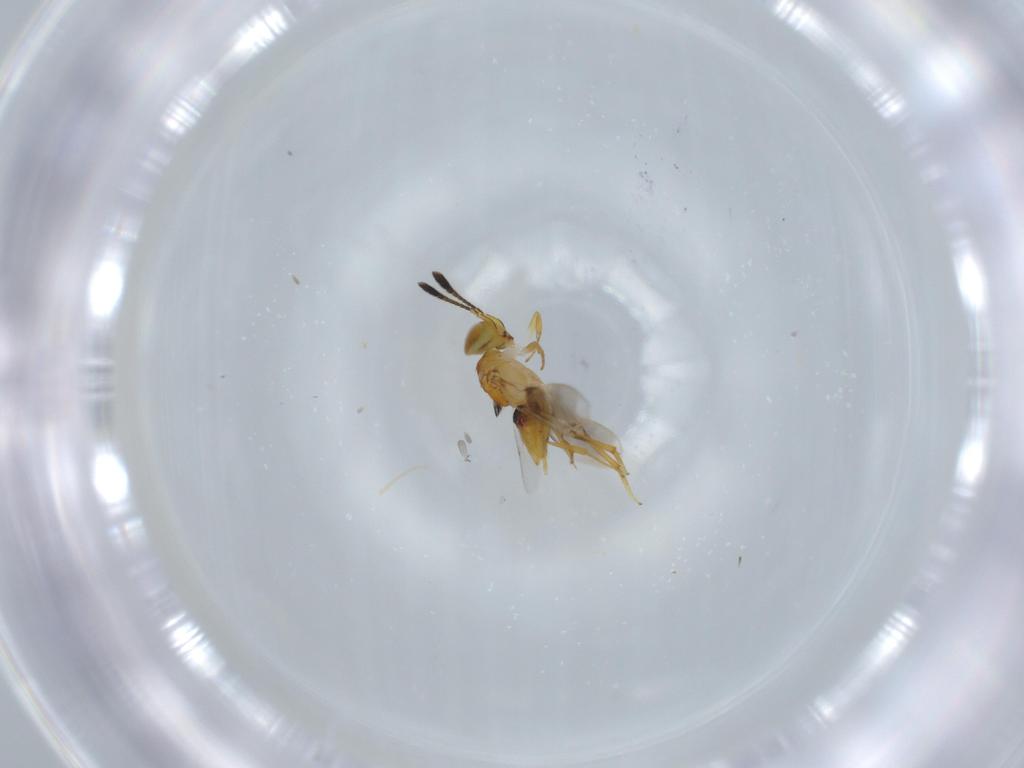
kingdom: Animalia
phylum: Arthropoda
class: Insecta
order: Hymenoptera
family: Encyrtidae
